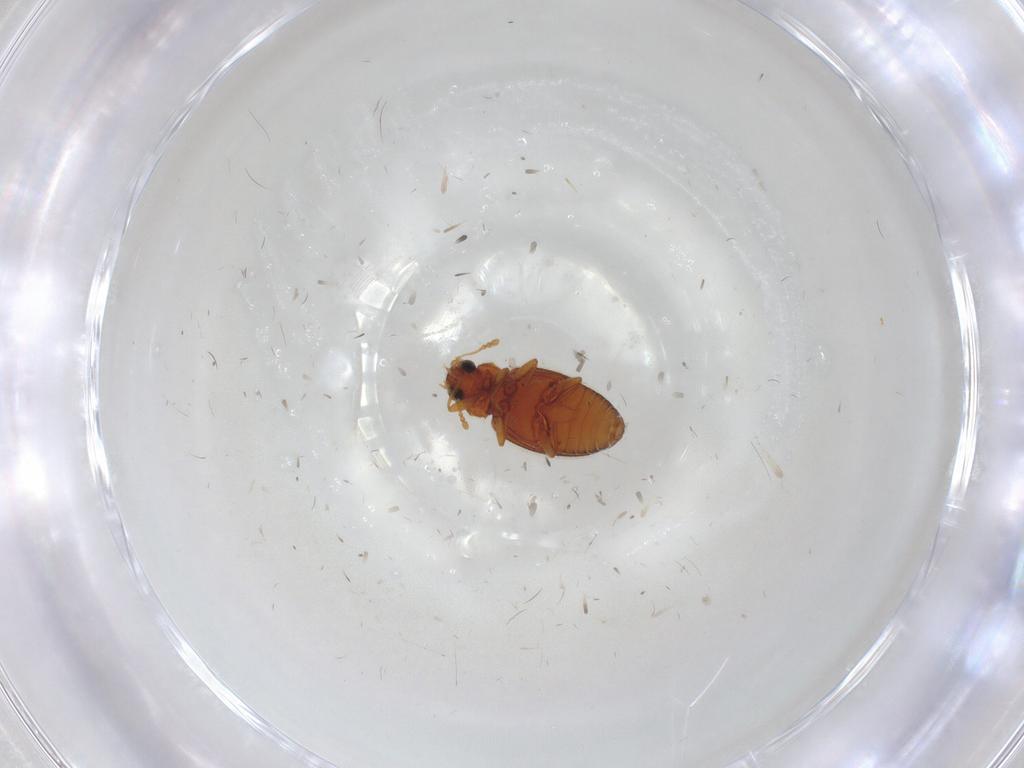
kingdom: Animalia
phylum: Arthropoda
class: Insecta
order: Coleoptera
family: Latridiidae
